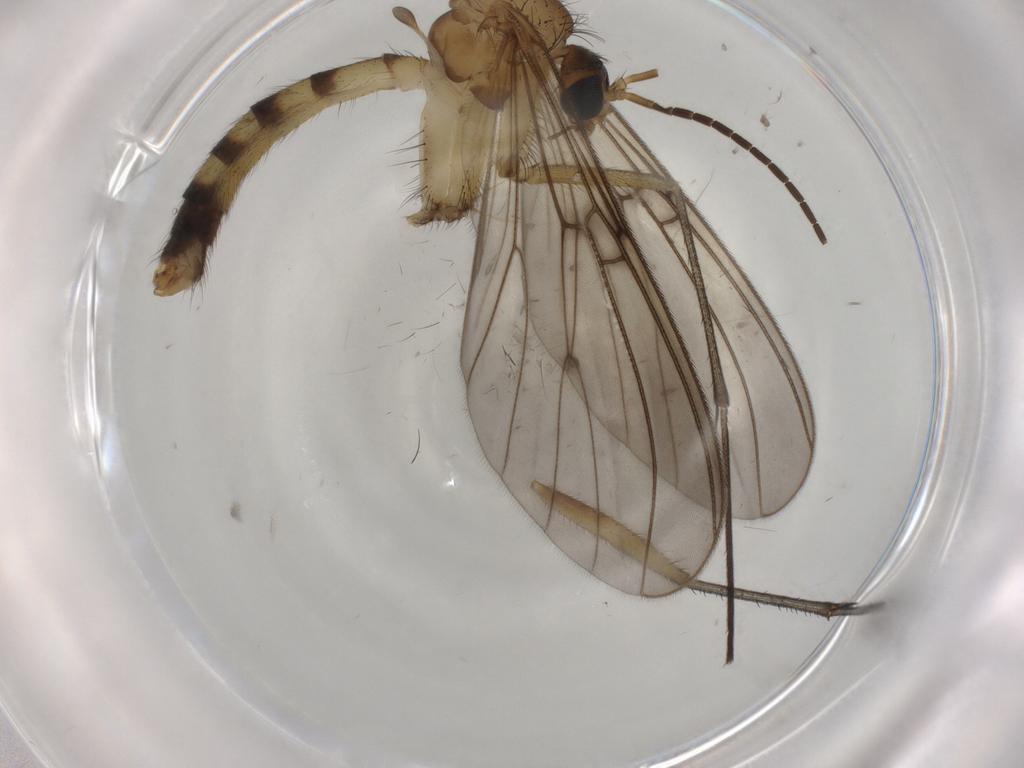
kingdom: Animalia
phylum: Arthropoda
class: Insecta
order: Diptera
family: Mycetophilidae
